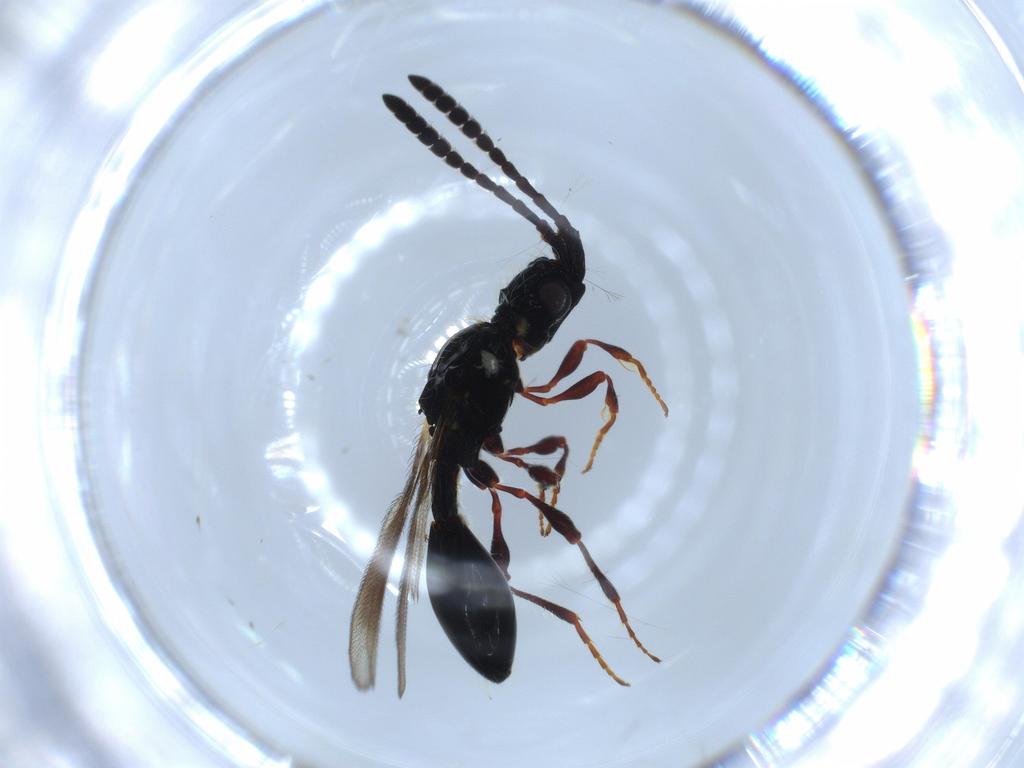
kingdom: Animalia
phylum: Arthropoda
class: Insecta
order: Hymenoptera
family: Diapriidae
